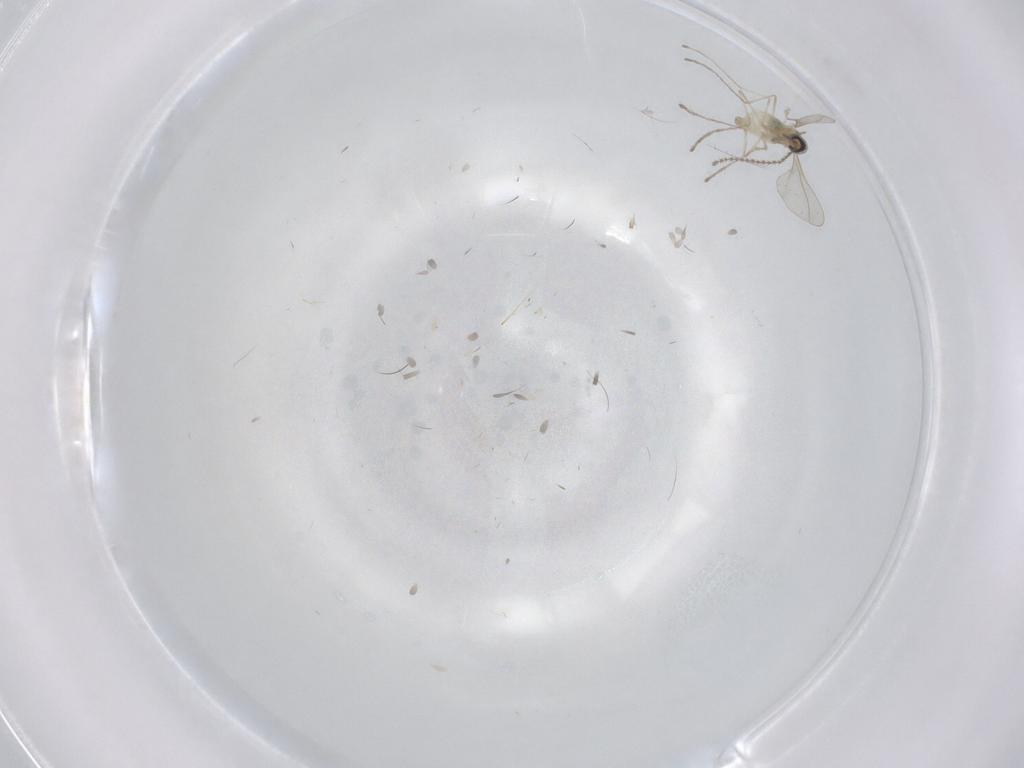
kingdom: Animalia
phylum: Arthropoda
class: Insecta
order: Diptera
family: Cecidomyiidae
